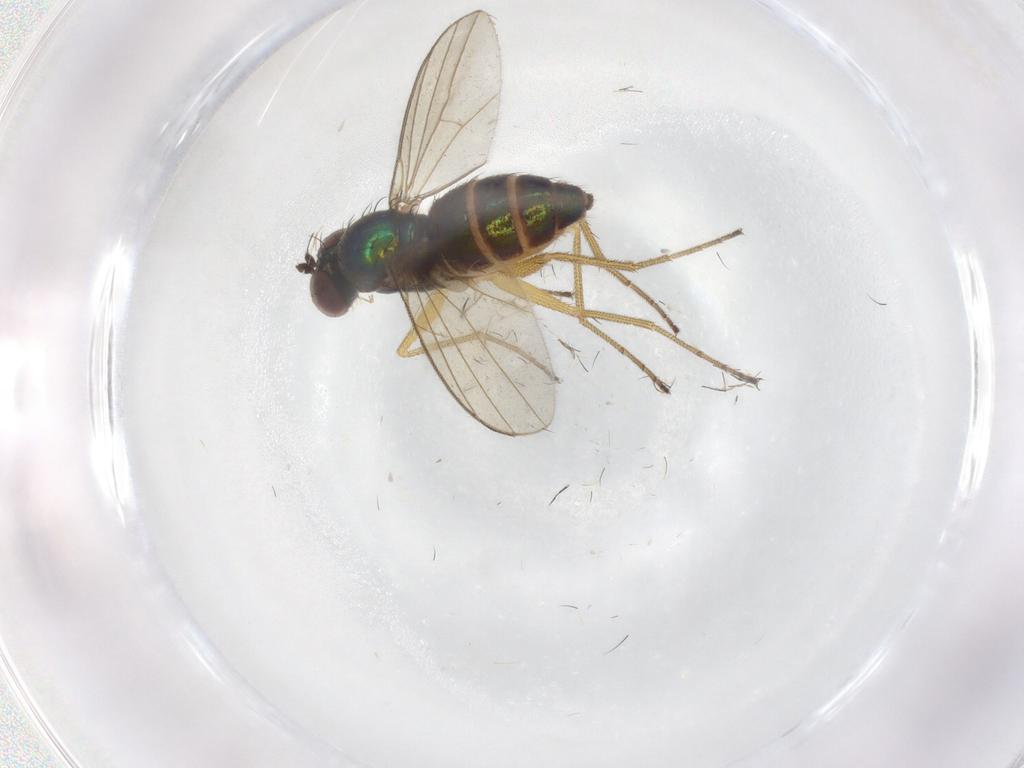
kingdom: Animalia
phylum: Arthropoda
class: Insecta
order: Diptera
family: Dolichopodidae
